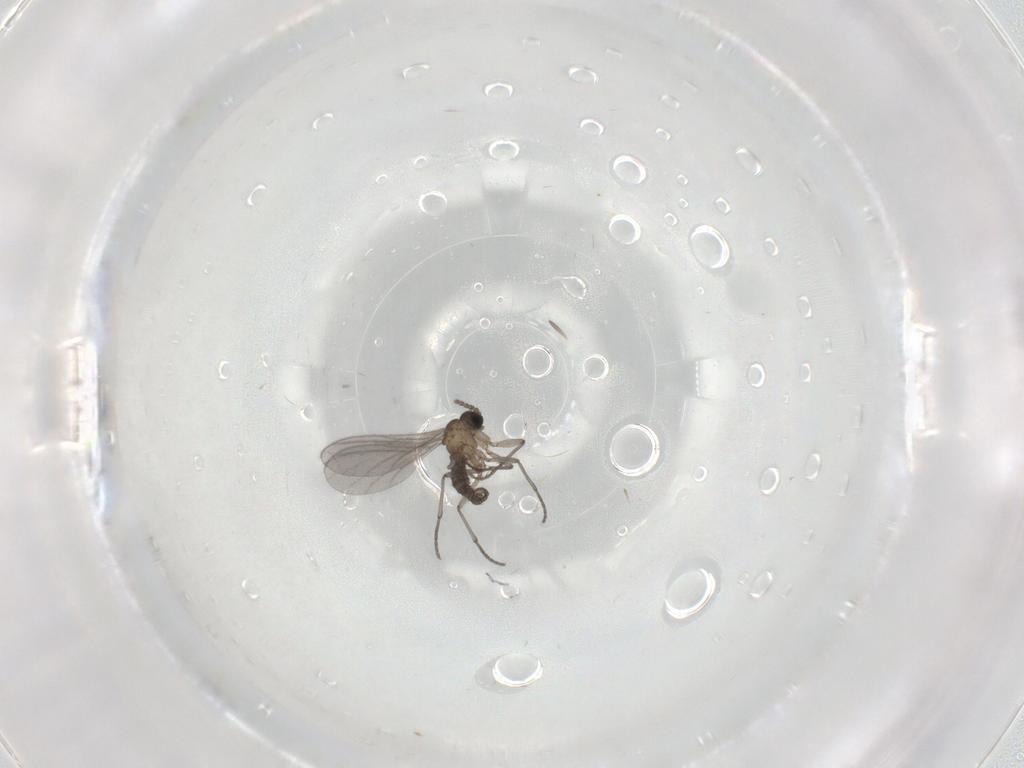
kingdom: Animalia
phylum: Arthropoda
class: Insecta
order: Diptera
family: Sciaridae
